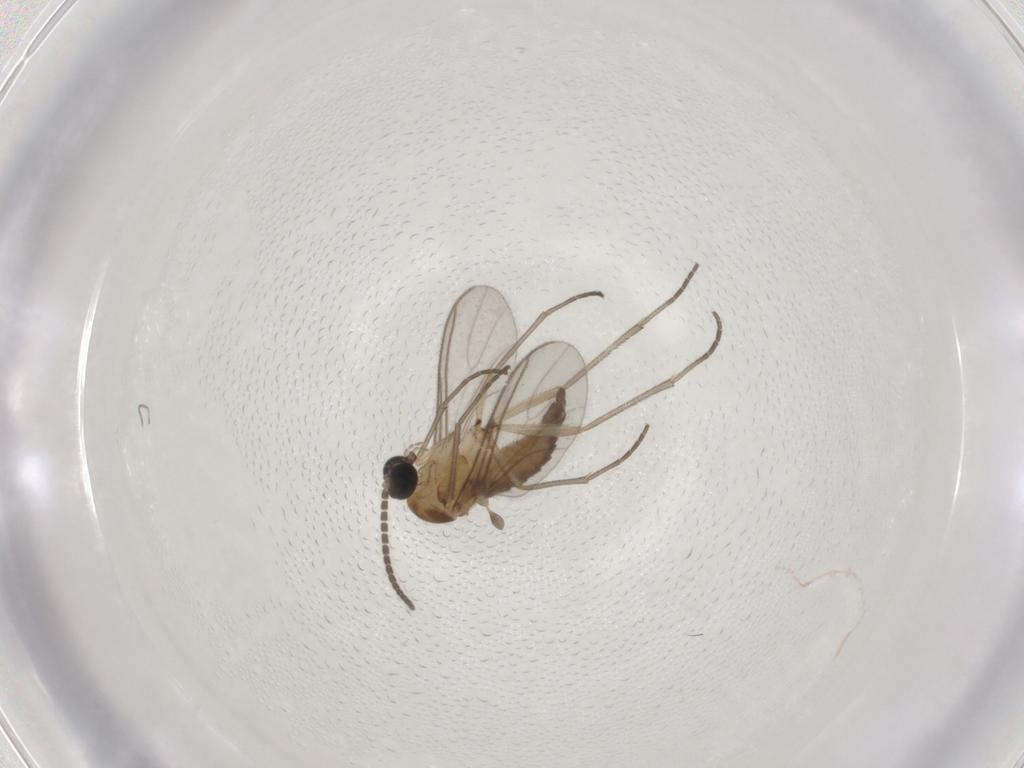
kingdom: Animalia
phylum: Arthropoda
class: Insecta
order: Diptera
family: Sciaridae
